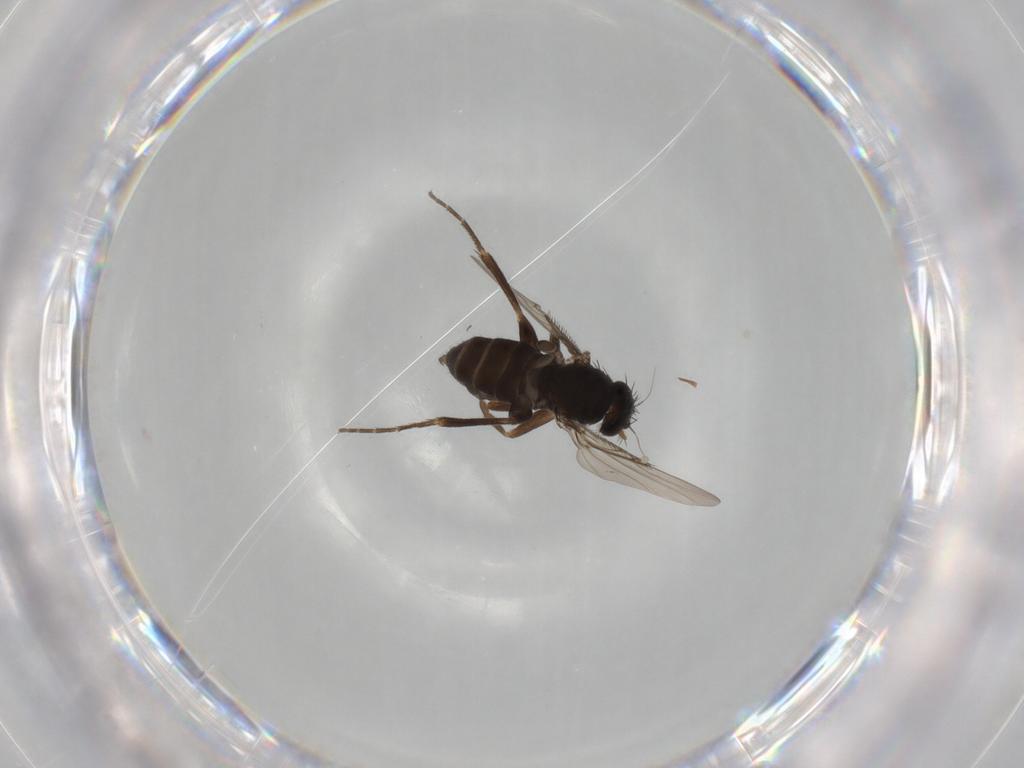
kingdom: Animalia
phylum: Arthropoda
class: Insecta
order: Diptera
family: Phoridae
